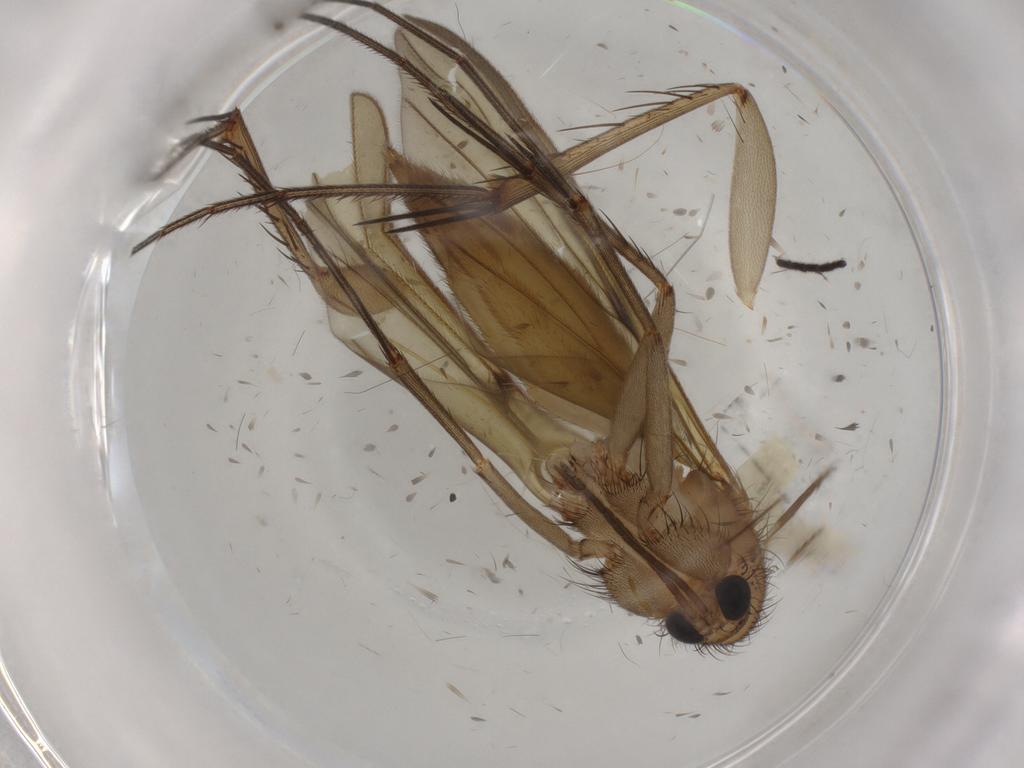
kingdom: Animalia
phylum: Arthropoda
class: Insecta
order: Diptera
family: Mycetophilidae
